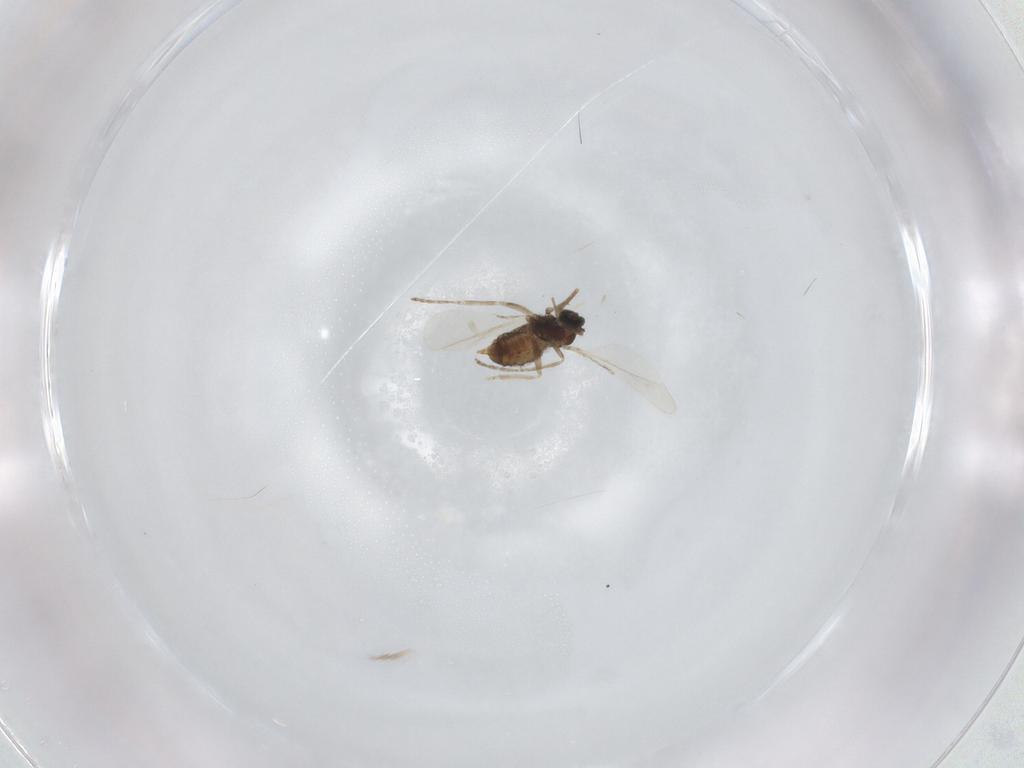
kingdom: Animalia
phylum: Arthropoda
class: Insecta
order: Diptera
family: Cecidomyiidae
